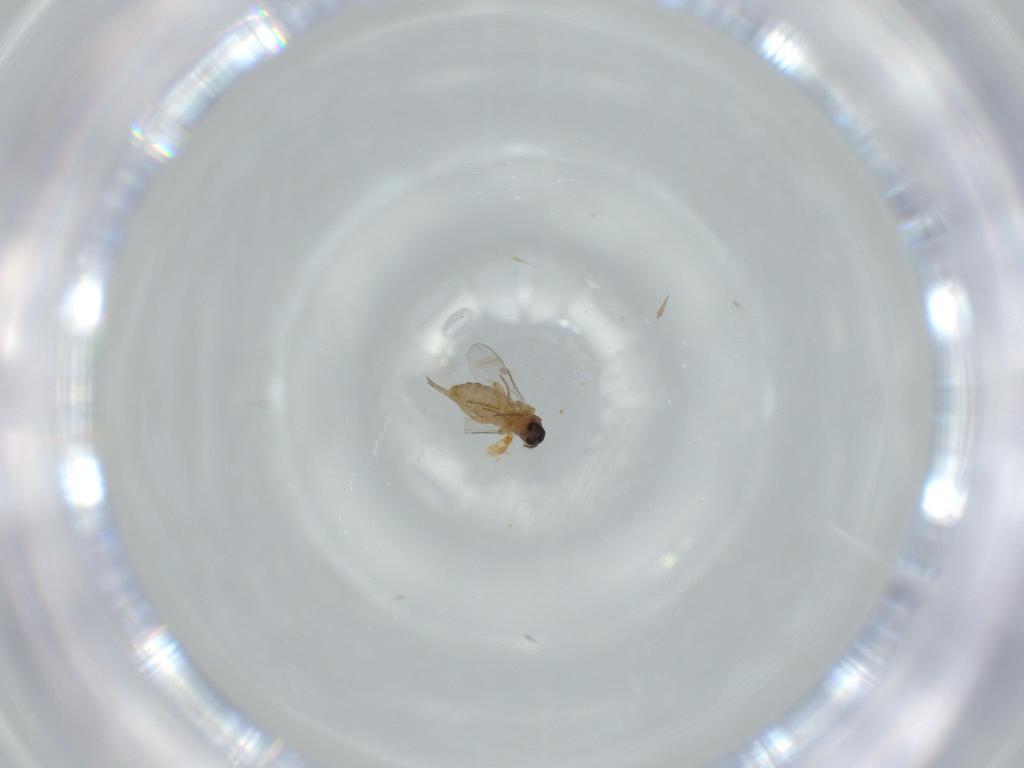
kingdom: Animalia
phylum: Arthropoda
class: Insecta
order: Diptera
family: Ceratopogonidae
